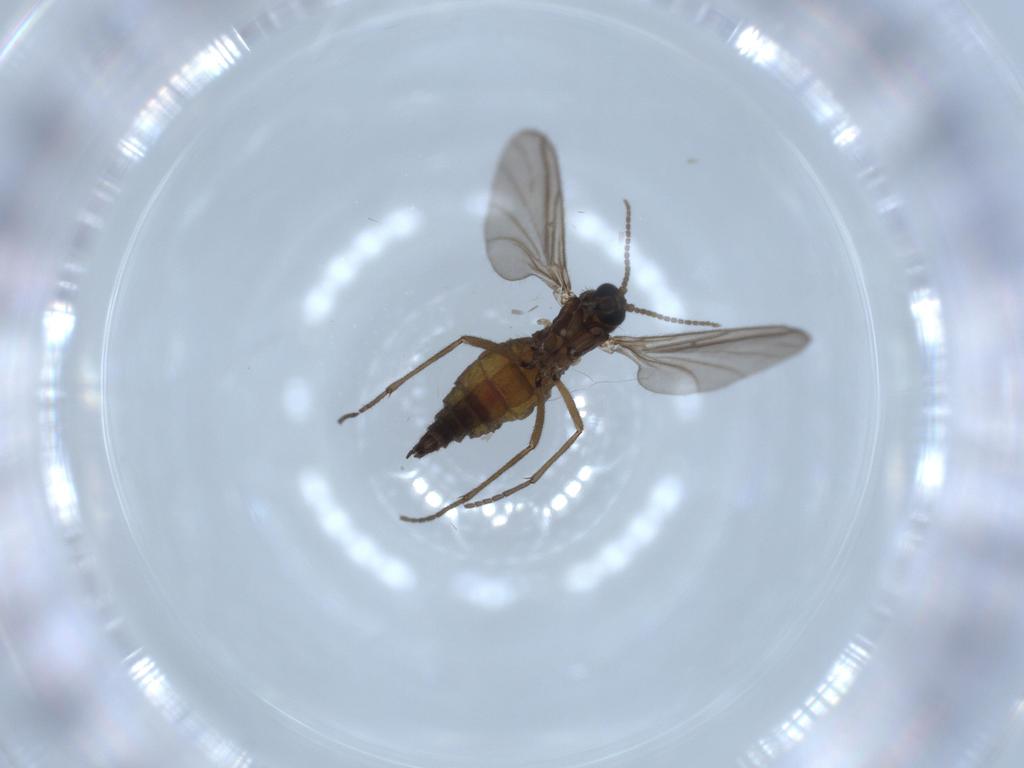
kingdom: Animalia
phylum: Arthropoda
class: Insecta
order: Diptera
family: Sciaridae
